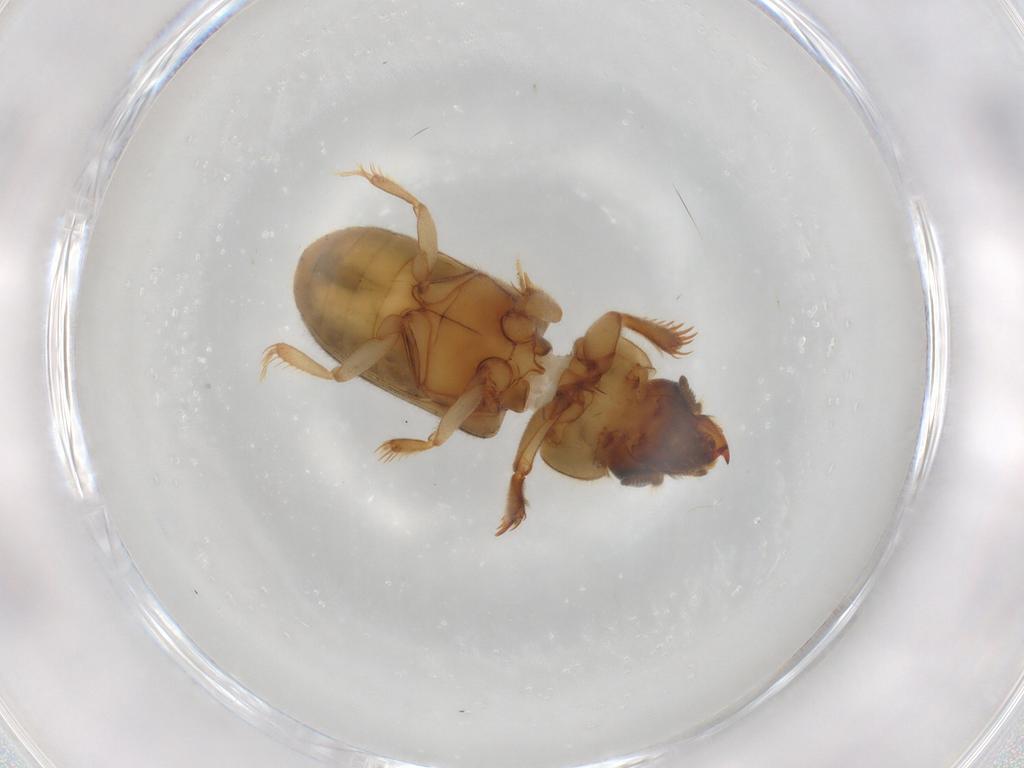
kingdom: Animalia
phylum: Arthropoda
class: Insecta
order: Coleoptera
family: Heteroceridae
